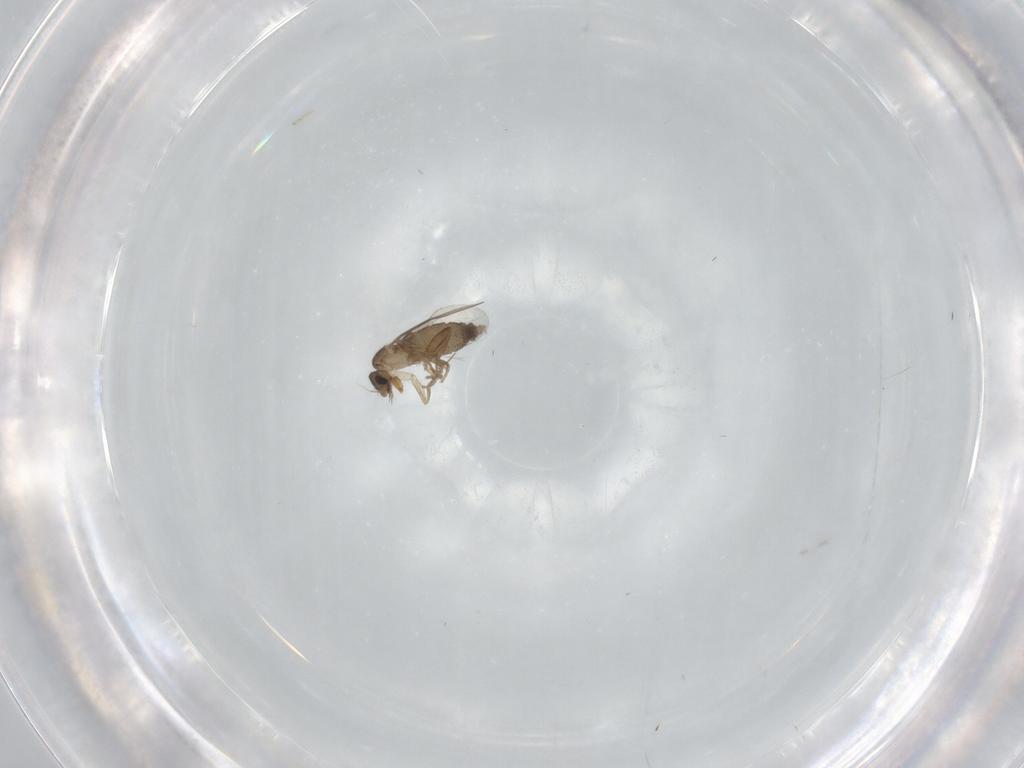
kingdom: Animalia
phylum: Arthropoda
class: Insecta
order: Diptera
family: Phoridae
